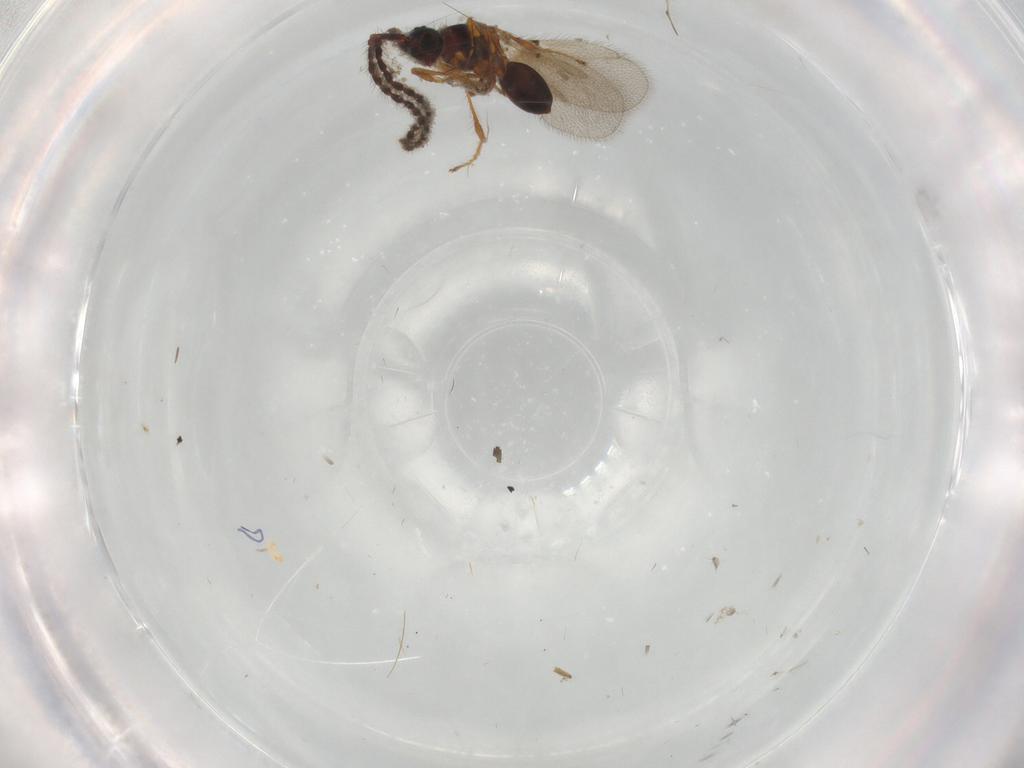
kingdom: Animalia
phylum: Arthropoda
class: Insecta
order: Hymenoptera
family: Diapriidae
